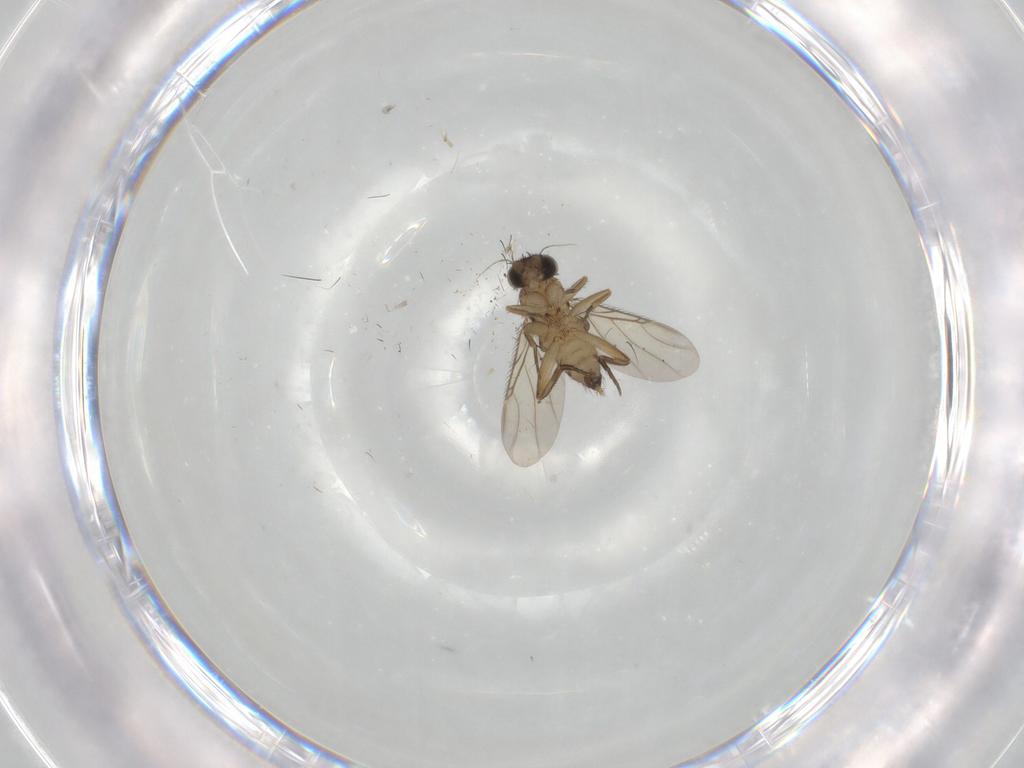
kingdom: Animalia
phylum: Arthropoda
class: Insecta
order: Diptera
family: Phoridae
